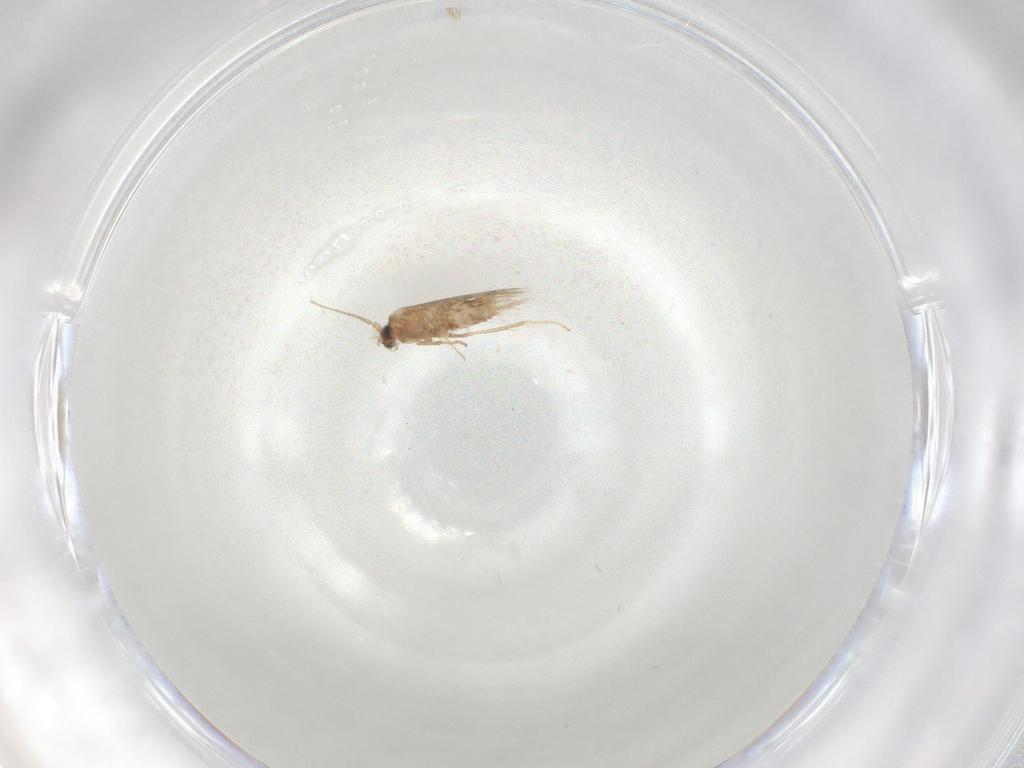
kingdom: Animalia
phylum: Arthropoda
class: Insecta
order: Lepidoptera
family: Nepticulidae
